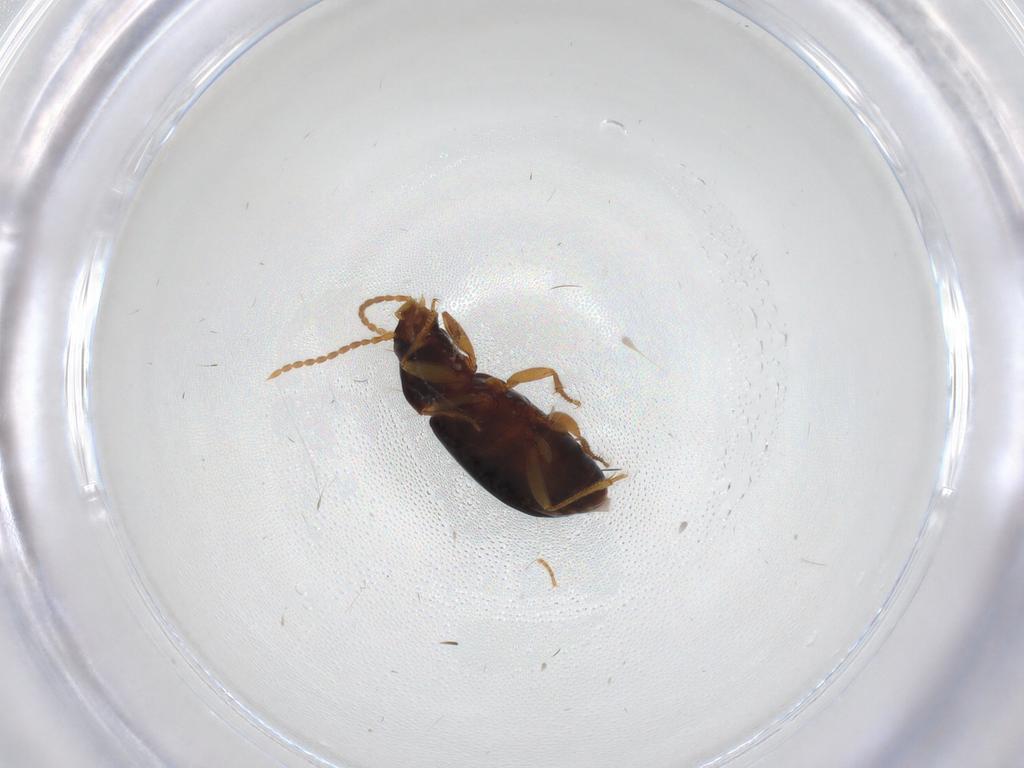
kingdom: Animalia
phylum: Arthropoda
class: Insecta
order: Coleoptera
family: Carabidae
